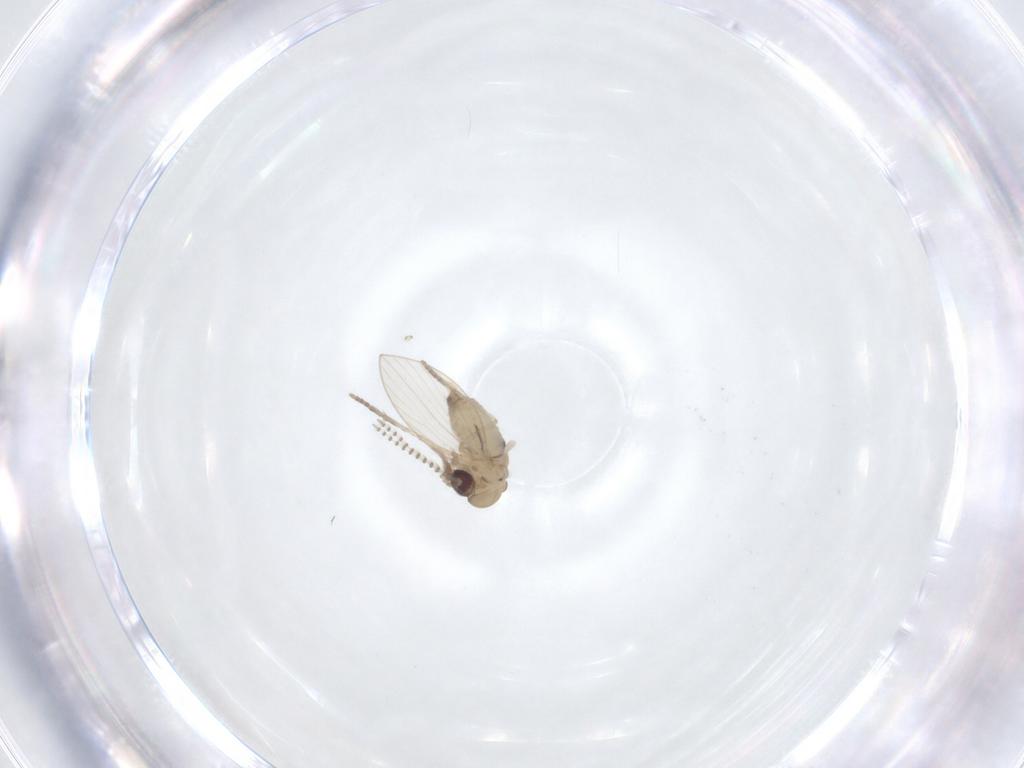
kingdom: Animalia
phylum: Arthropoda
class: Insecta
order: Diptera
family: Psychodidae
